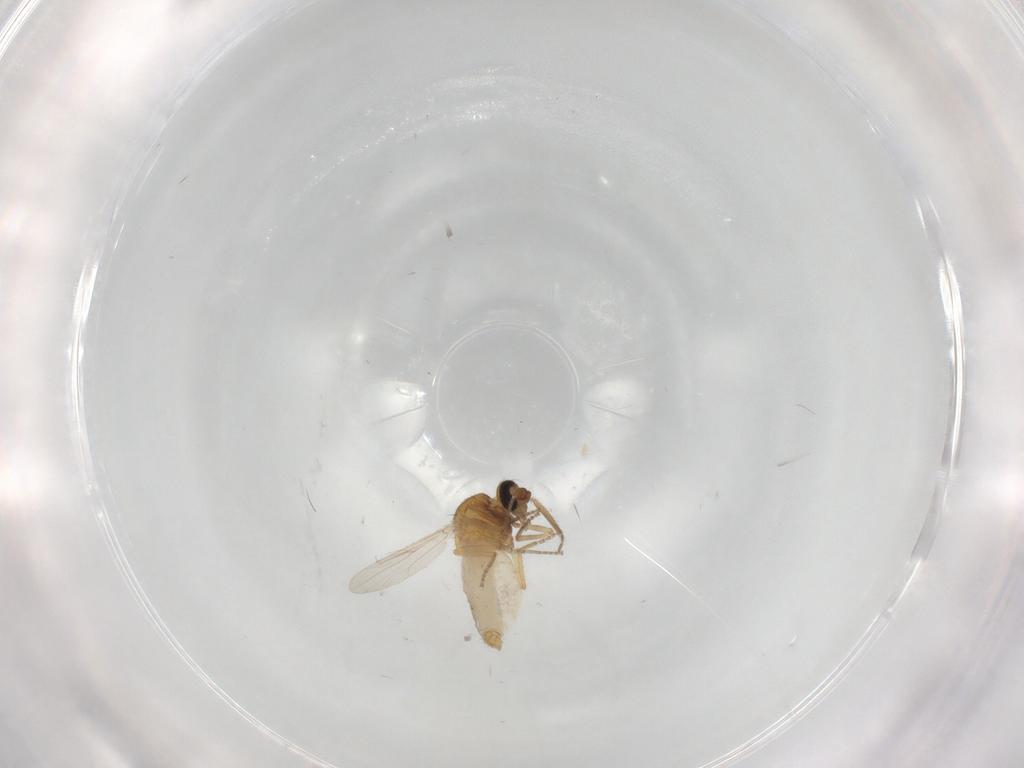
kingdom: Animalia
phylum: Arthropoda
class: Insecta
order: Diptera
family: Ceratopogonidae
